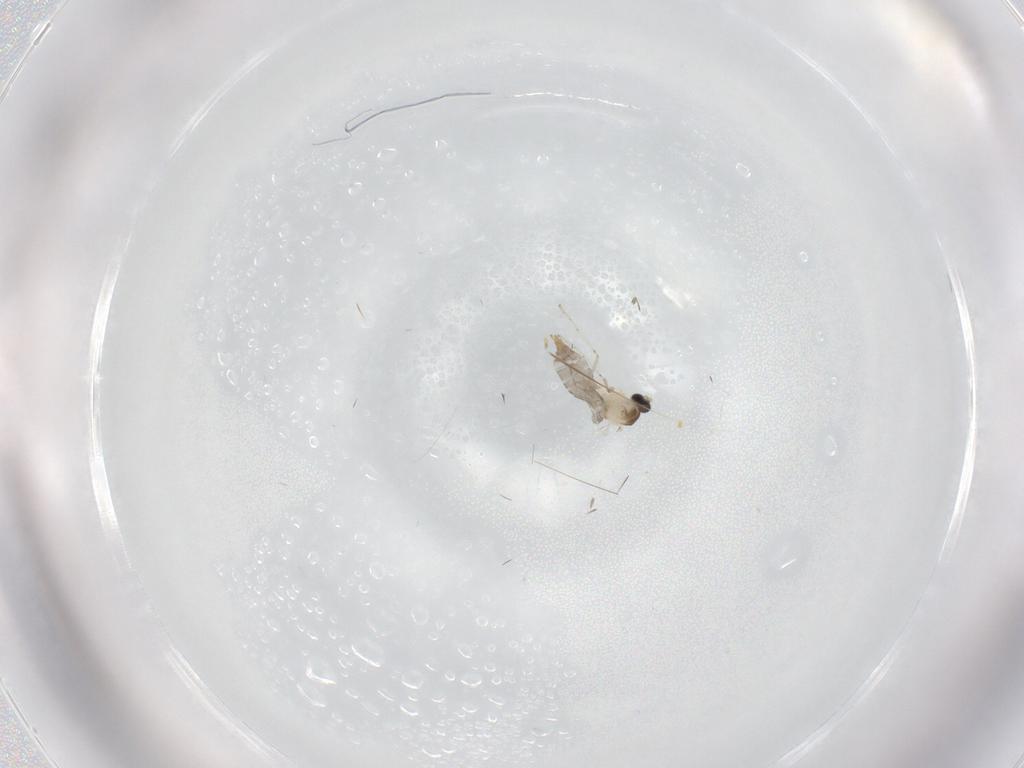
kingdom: Animalia
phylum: Arthropoda
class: Insecta
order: Diptera
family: Cecidomyiidae
